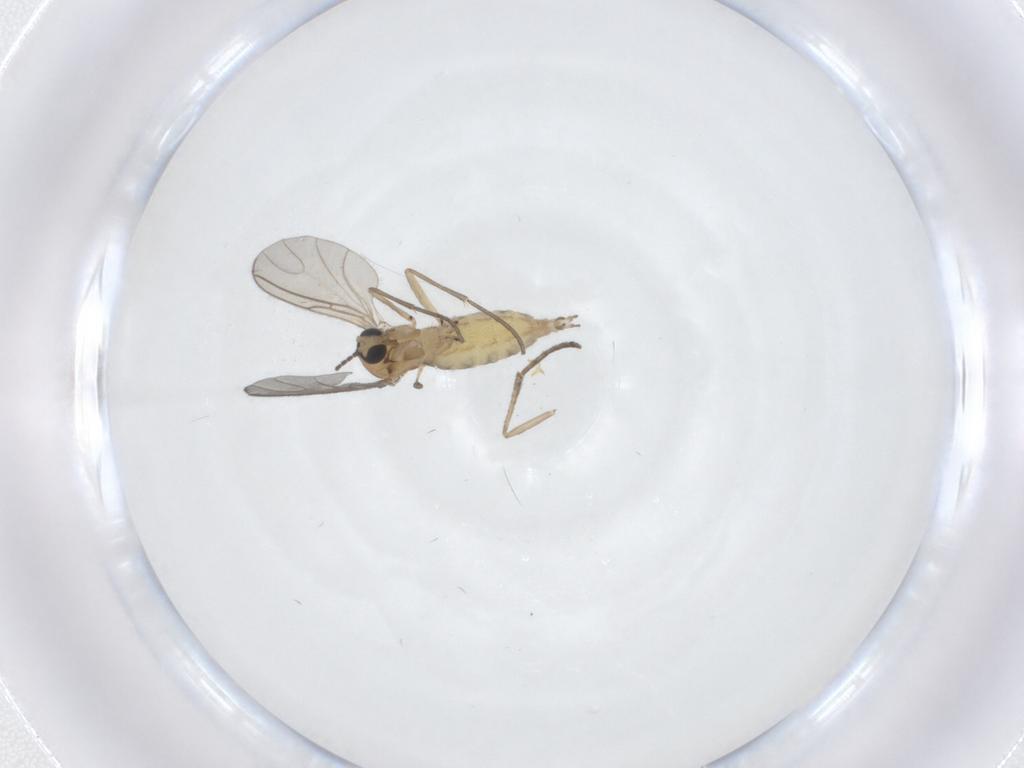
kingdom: Animalia
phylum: Arthropoda
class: Insecta
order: Diptera
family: Sciaridae
